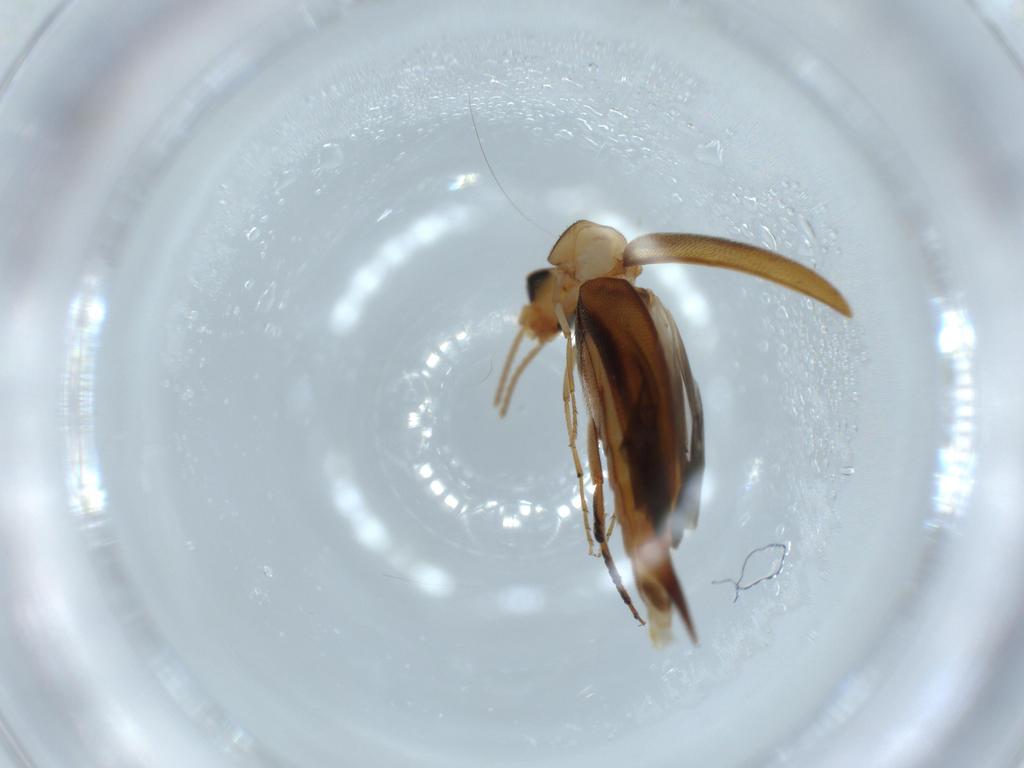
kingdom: Animalia
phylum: Arthropoda
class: Insecta
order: Coleoptera
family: Mordellidae
